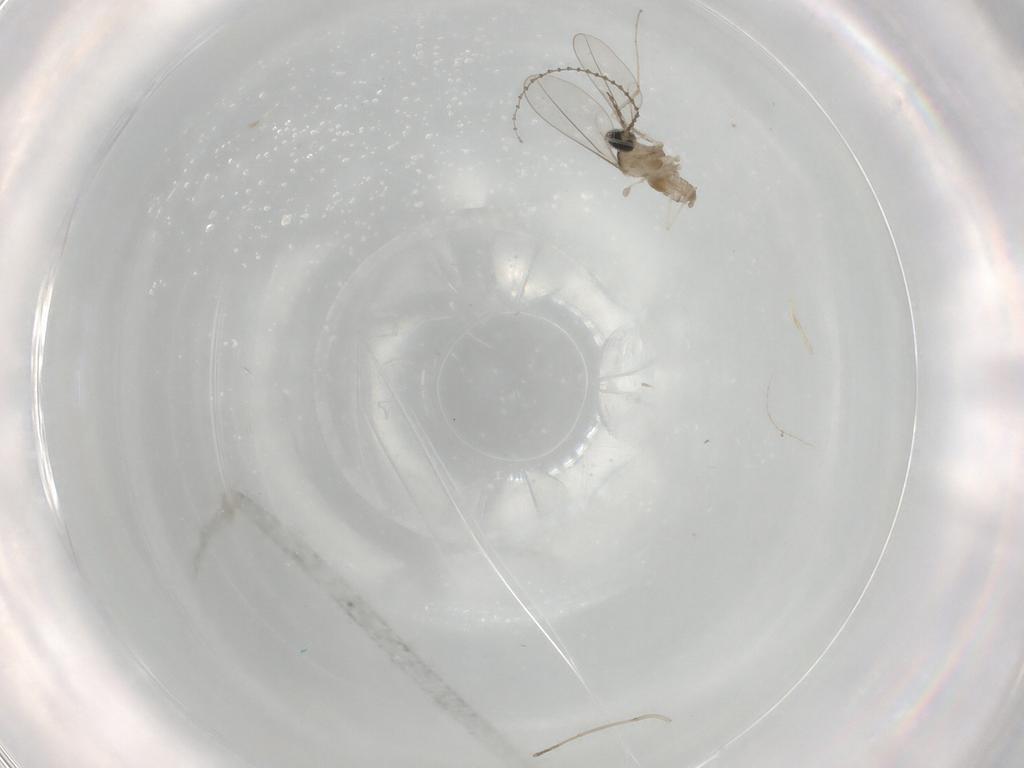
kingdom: Animalia
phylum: Arthropoda
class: Insecta
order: Diptera
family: Cecidomyiidae
